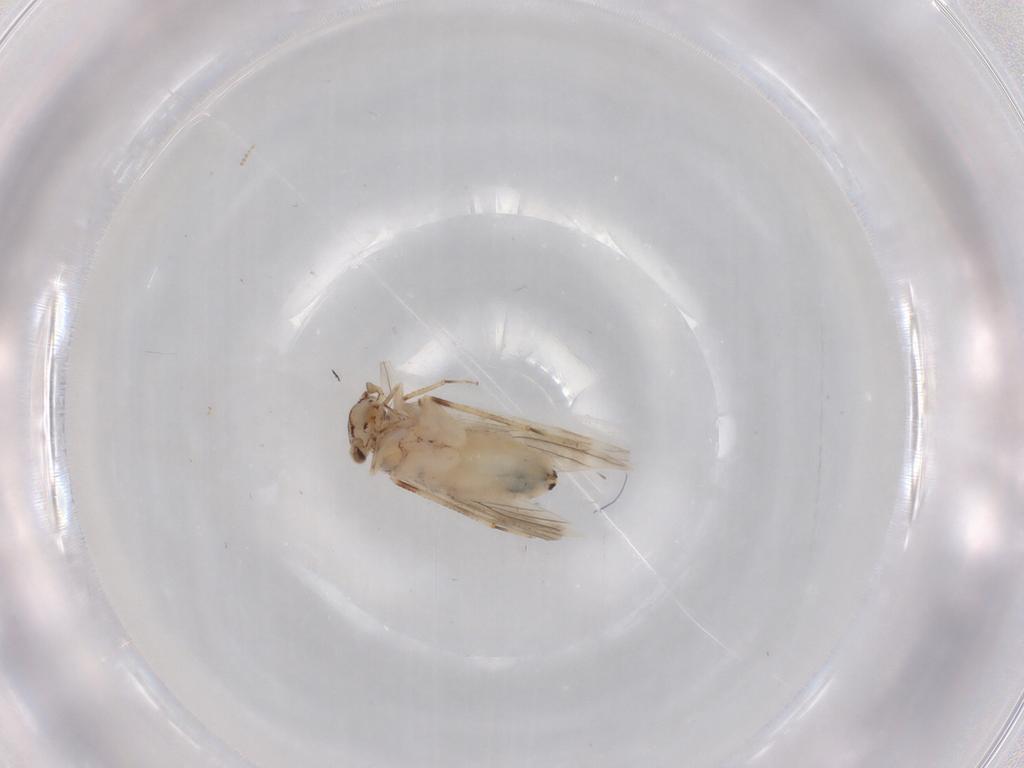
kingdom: Animalia
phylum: Arthropoda
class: Insecta
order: Psocodea
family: Lepidopsocidae
